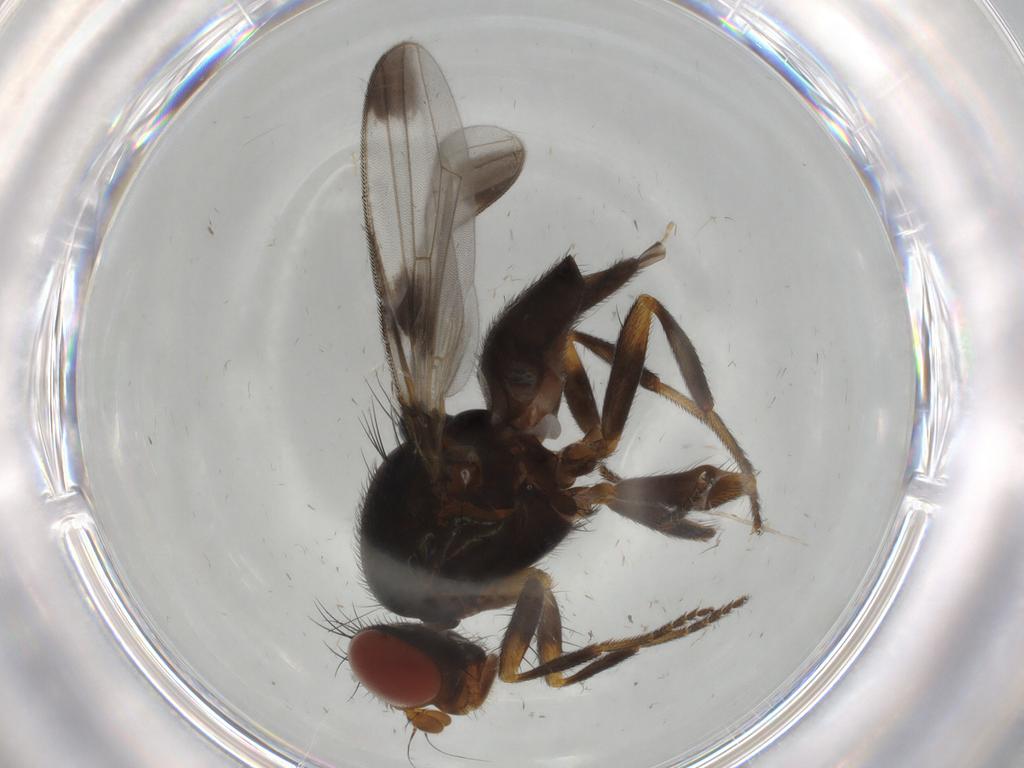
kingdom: Animalia
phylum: Arthropoda
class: Insecta
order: Diptera
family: Ulidiidae
